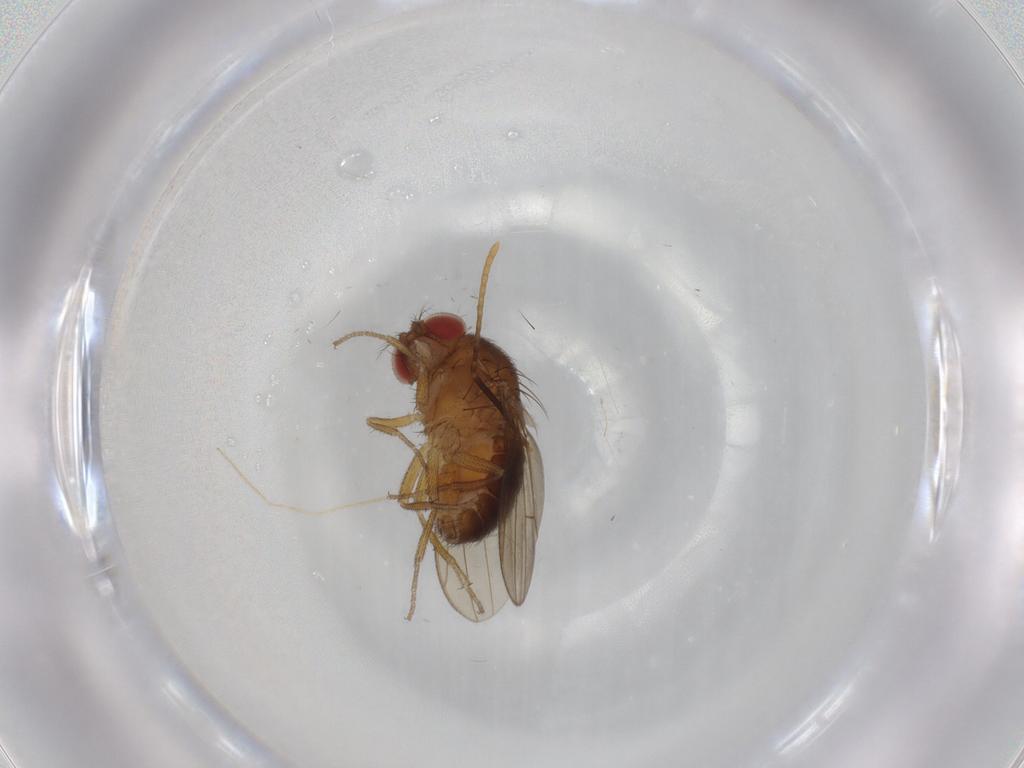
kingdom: Animalia
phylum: Arthropoda
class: Insecta
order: Diptera
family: Drosophilidae
